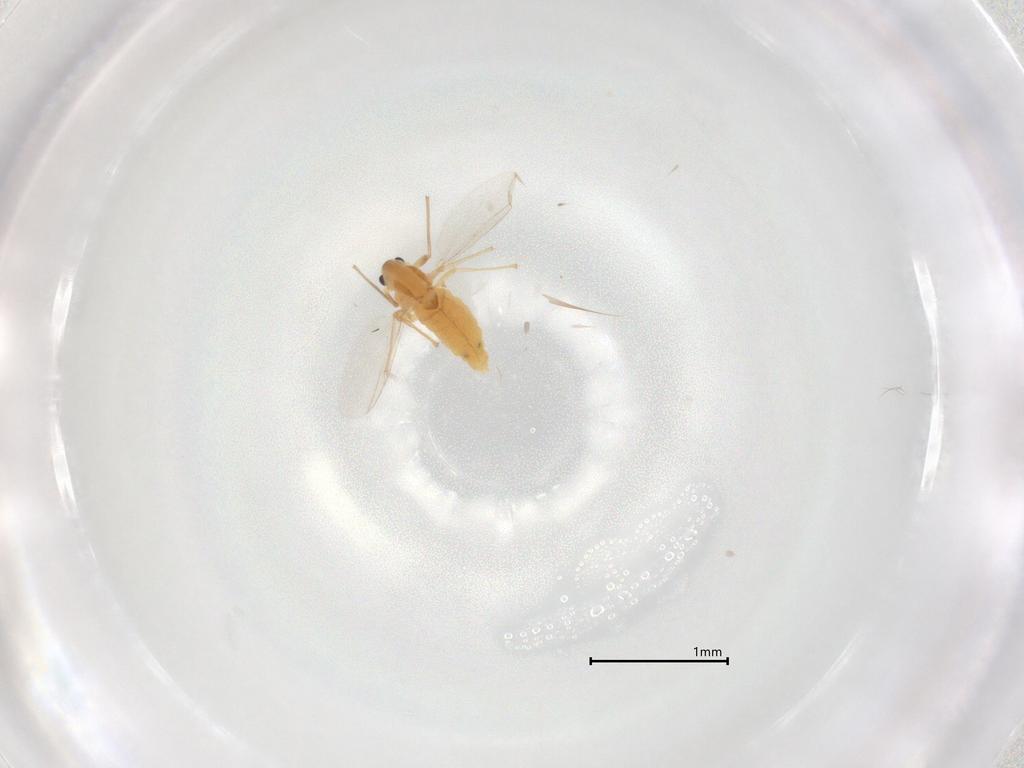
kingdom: Animalia
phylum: Arthropoda
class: Insecta
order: Diptera
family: Chironomidae
